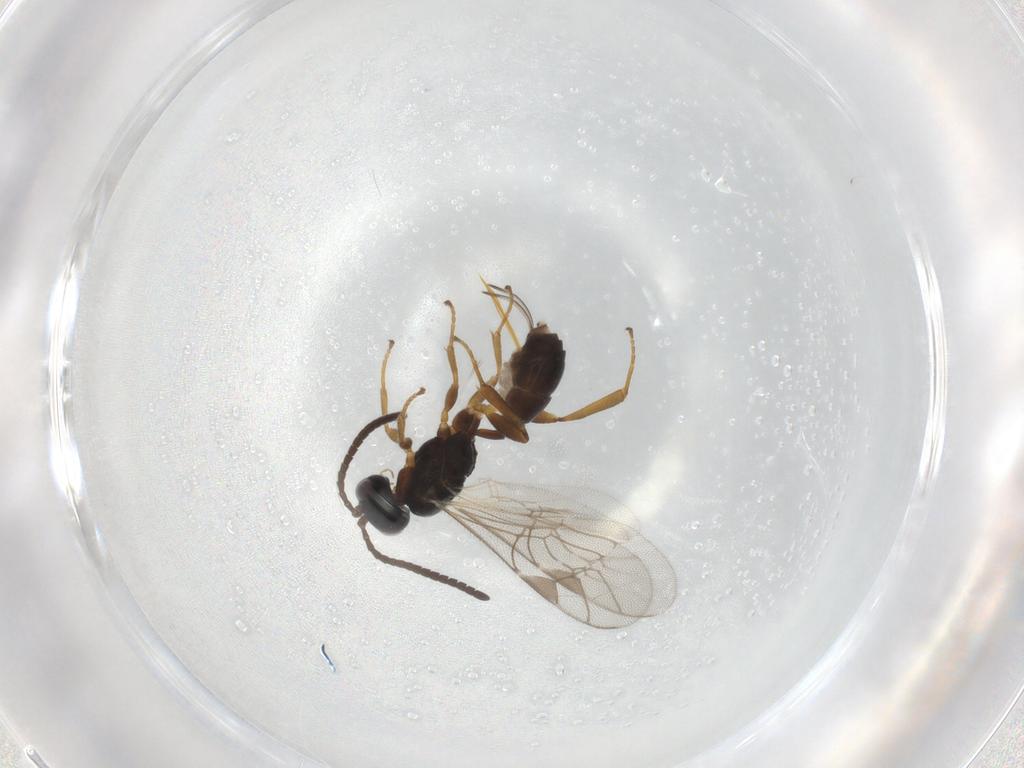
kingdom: Animalia
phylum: Arthropoda
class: Insecta
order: Hymenoptera
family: Ichneumonidae
